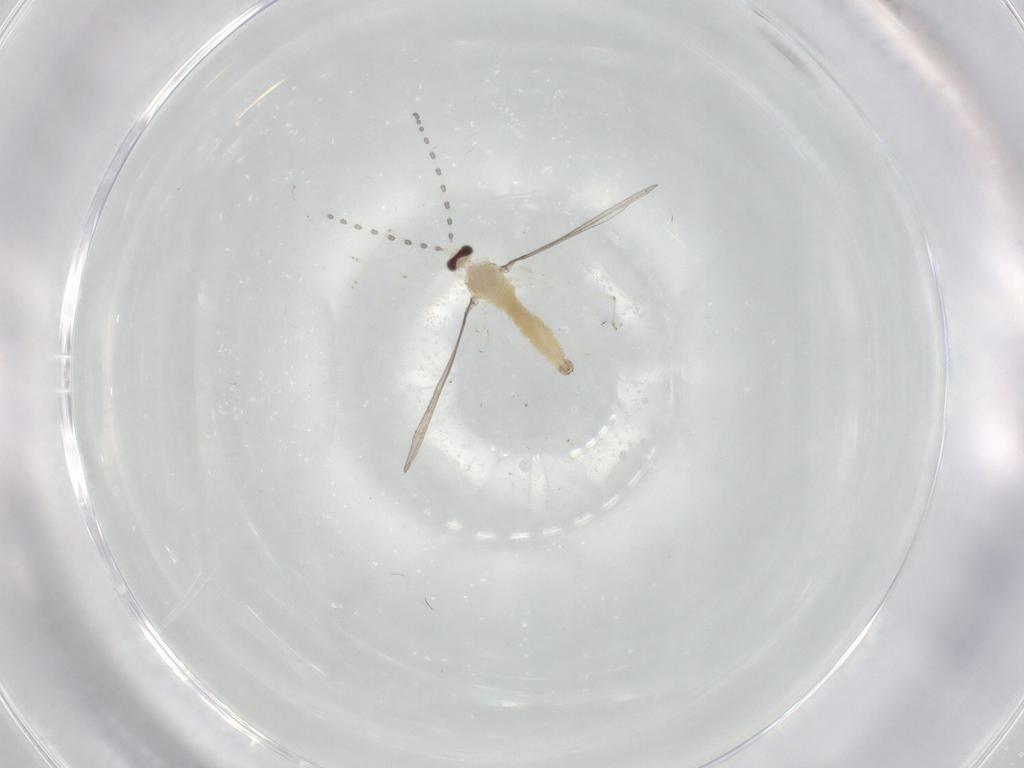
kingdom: Animalia
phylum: Arthropoda
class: Insecta
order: Diptera
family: Cecidomyiidae
